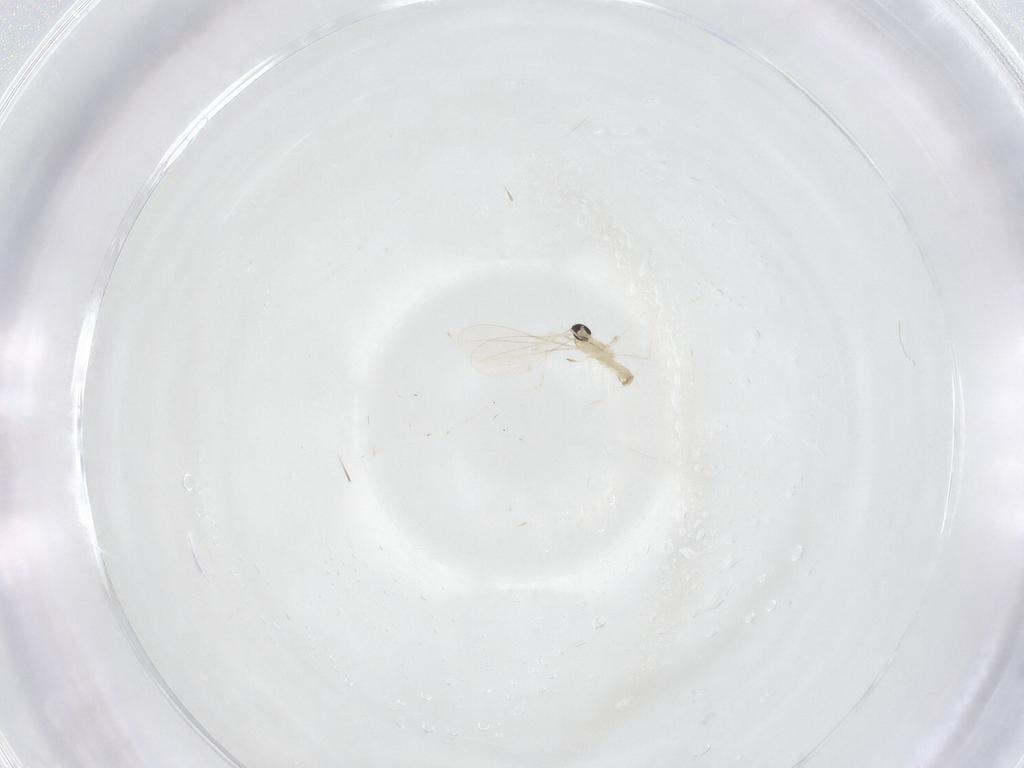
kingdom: Animalia
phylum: Arthropoda
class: Insecta
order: Diptera
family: Cecidomyiidae
